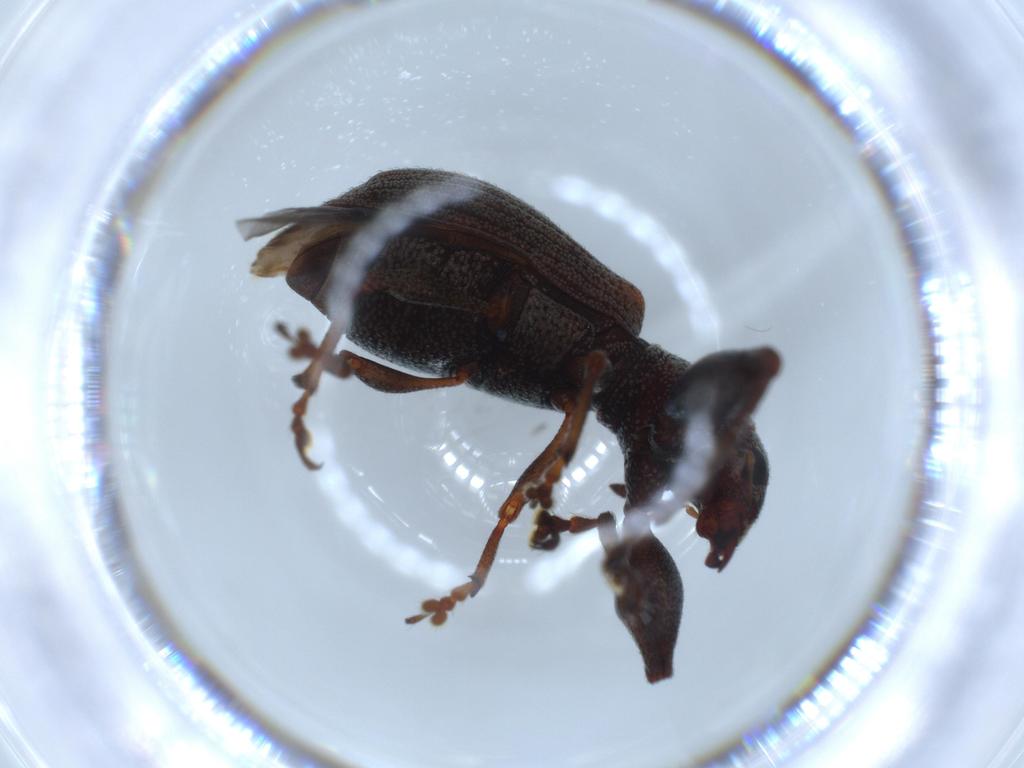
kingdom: Animalia
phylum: Arthropoda
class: Insecta
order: Coleoptera
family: Curculionidae
